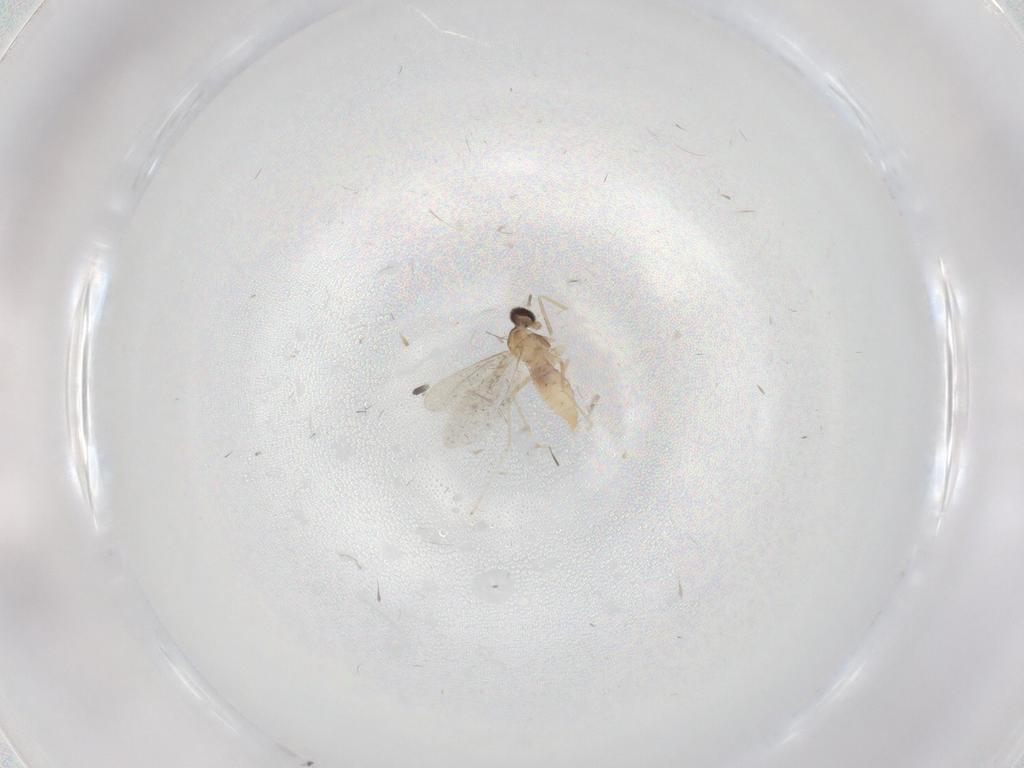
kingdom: Animalia
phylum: Arthropoda
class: Insecta
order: Diptera
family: Cecidomyiidae
